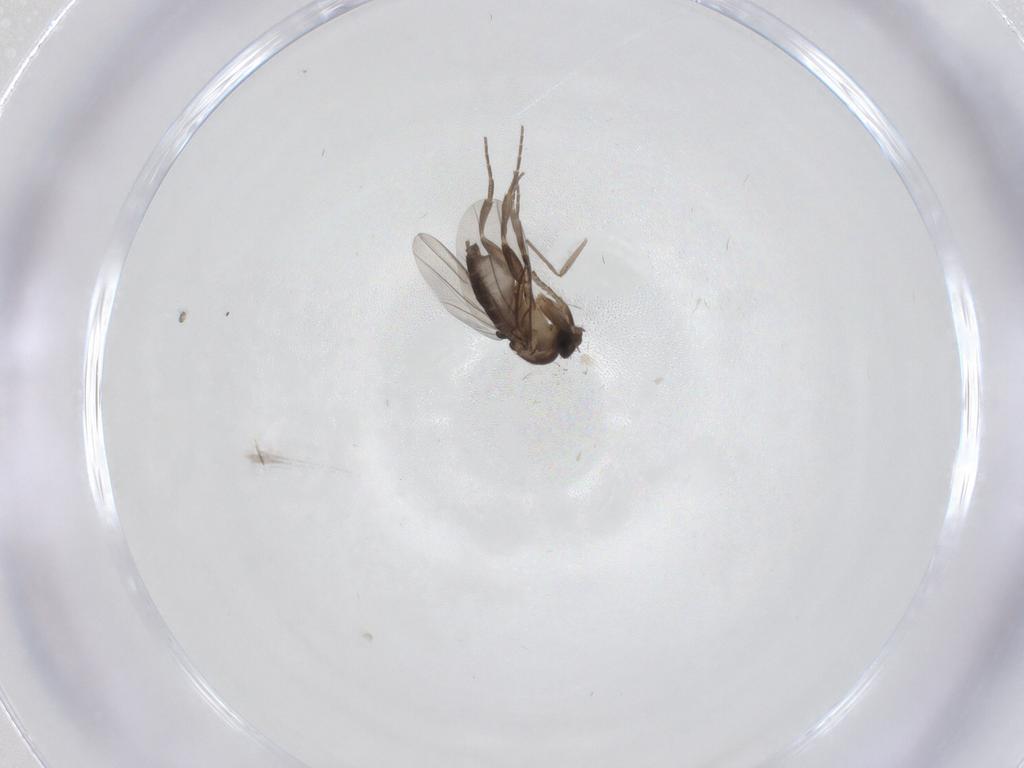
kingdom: Animalia
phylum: Arthropoda
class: Insecta
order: Diptera
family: Phoridae
